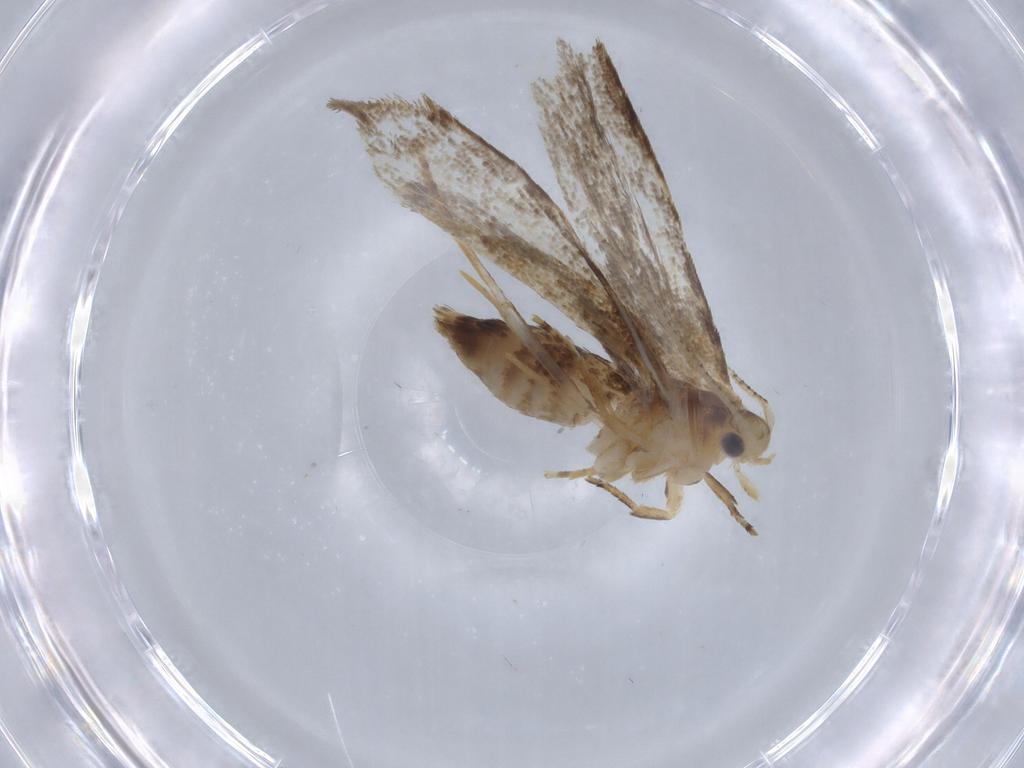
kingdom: Animalia
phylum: Arthropoda
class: Insecta
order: Lepidoptera
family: Dryadaulidae
